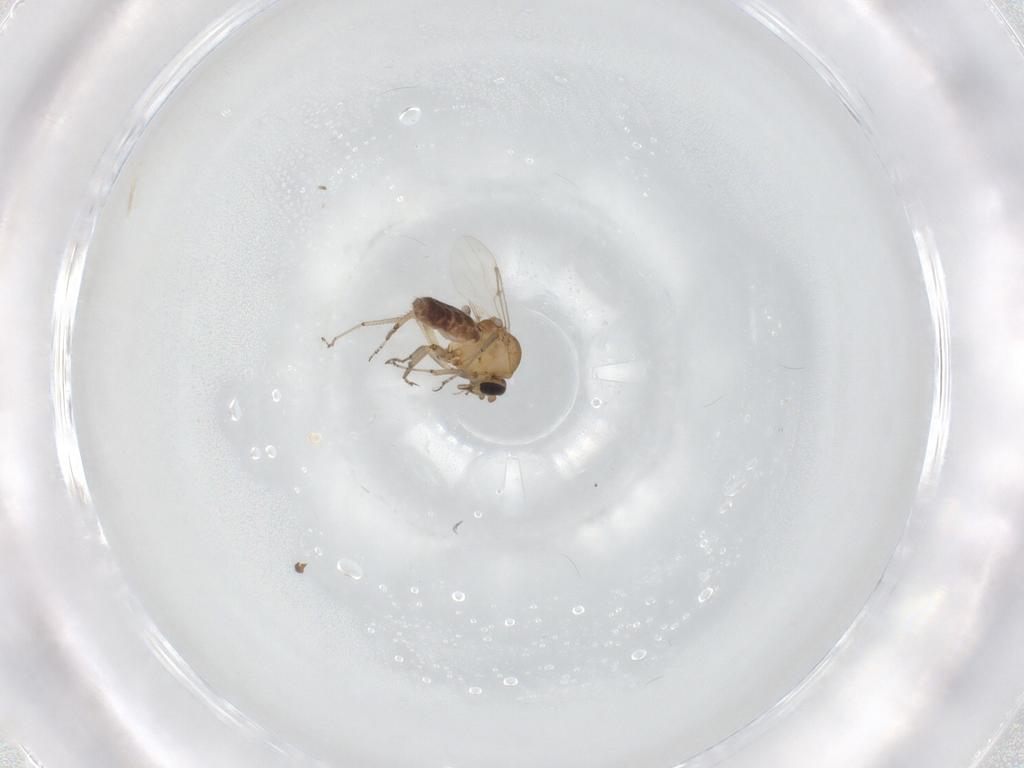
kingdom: Animalia
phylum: Arthropoda
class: Insecta
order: Diptera
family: Ceratopogonidae
